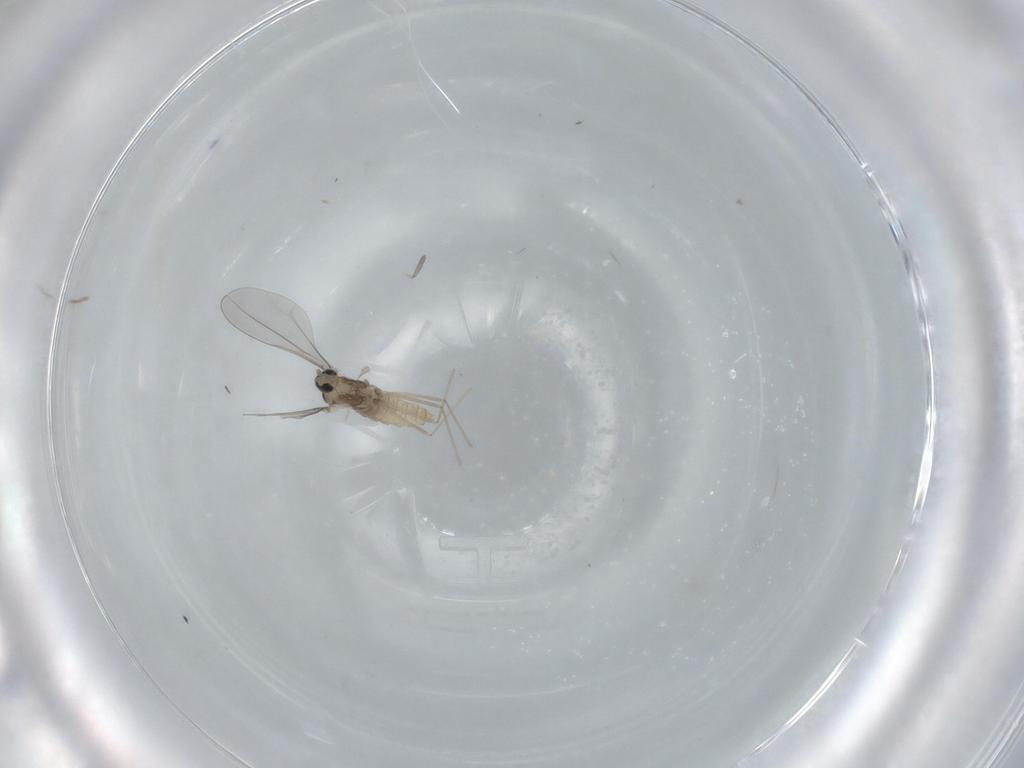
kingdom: Animalia
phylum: Arthropoda
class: Insecta
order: Diptera
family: Cecidomyiidae
